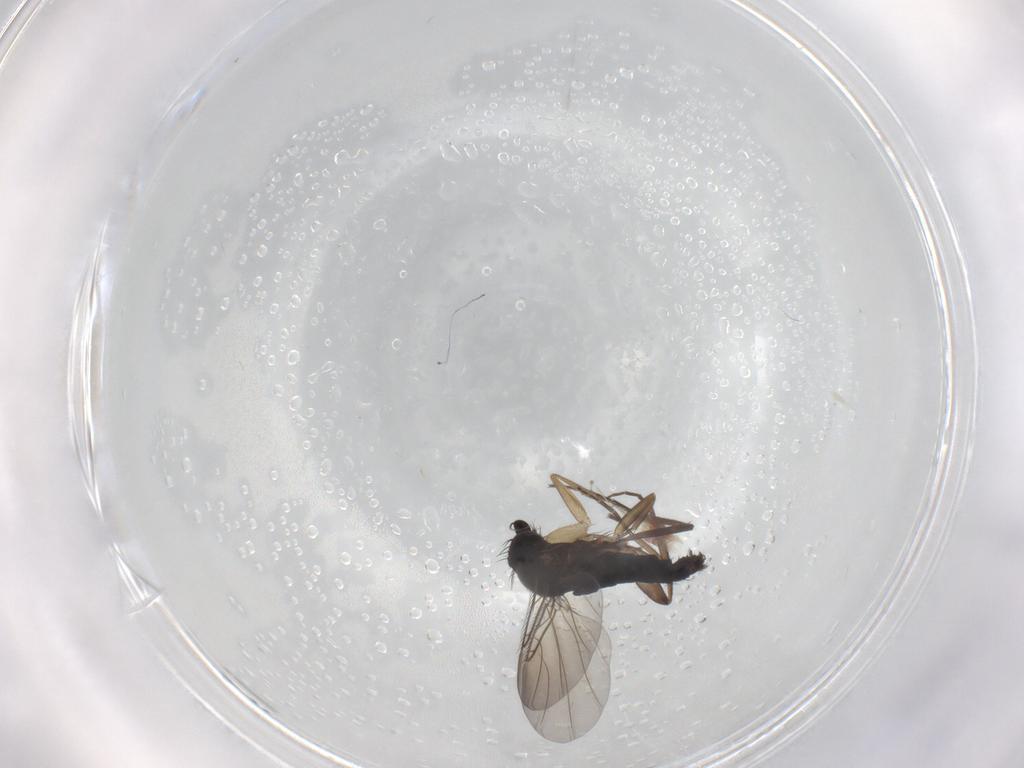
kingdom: Animalia
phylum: Arthropoda
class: Insecta
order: Diptera
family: Phoridae
